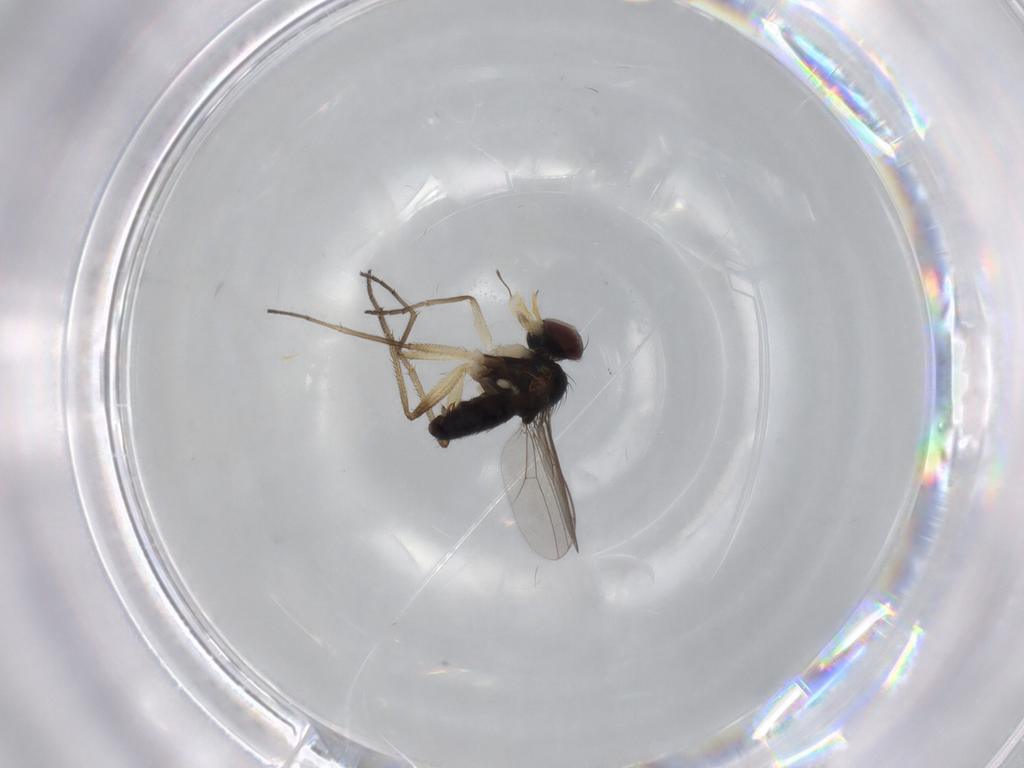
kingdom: Animalia
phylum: Arthropoda
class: Insecta
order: Diptera
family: Dolichopodidae
